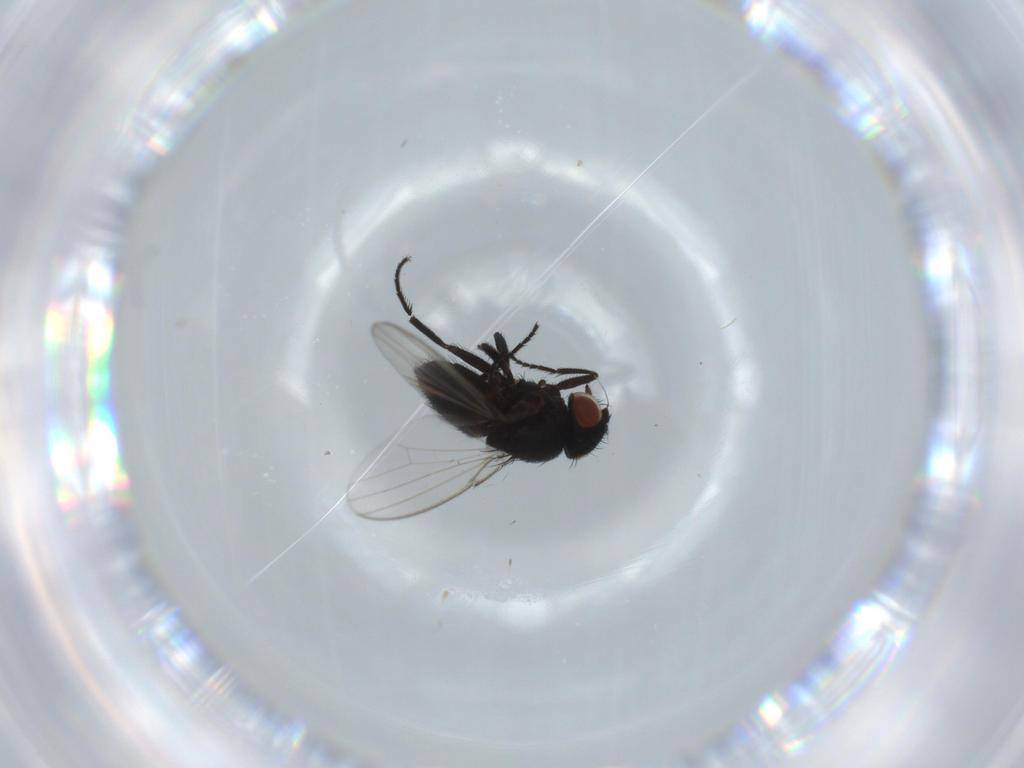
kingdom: Animalia
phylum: Arthropoda
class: Insecta
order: Diptera
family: Milichiidae
